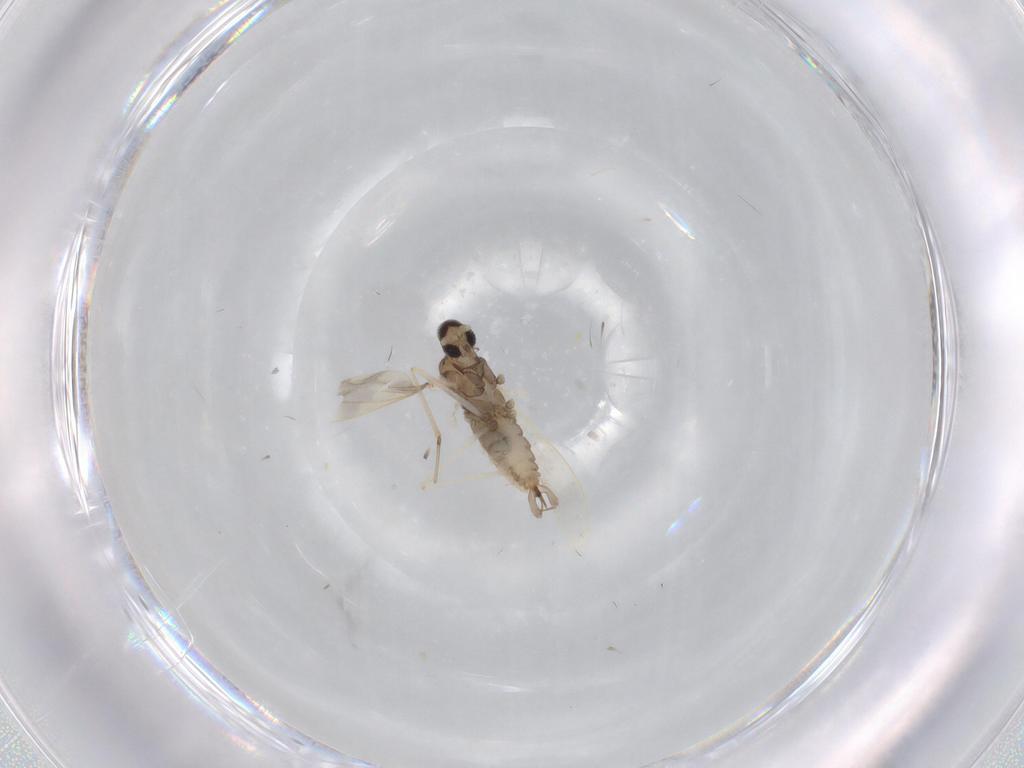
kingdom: Animalia
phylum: Arthropoda
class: Insecta
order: Diptera
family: Cecidomyiidae
